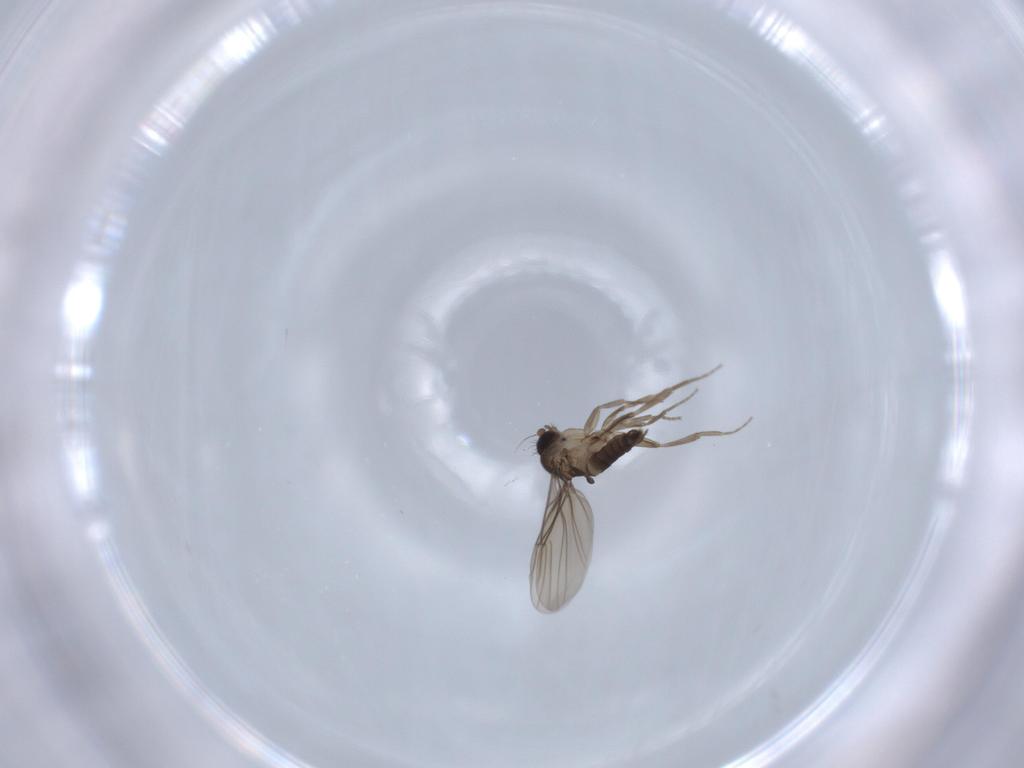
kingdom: Animalia
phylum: Arthropoda
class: Insecta
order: Diptera
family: Phoridae
